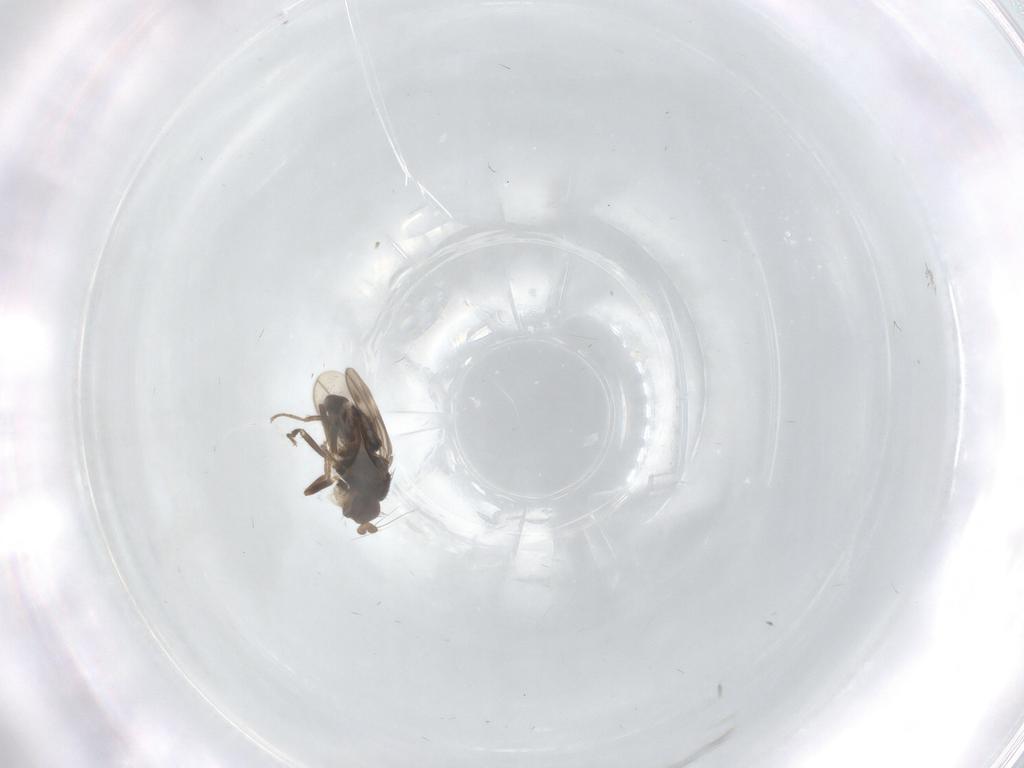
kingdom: Animalia
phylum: Arthropoda
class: Insecta
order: Diptera
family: Sphaeroceridae
